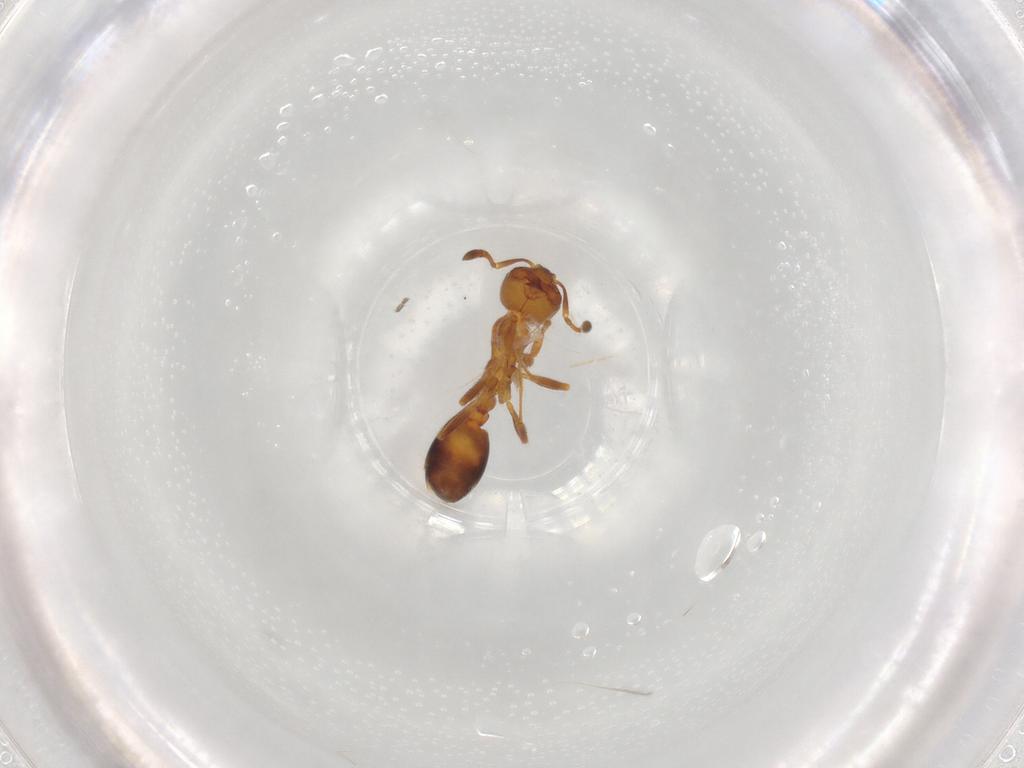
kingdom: Animalia
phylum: Arthropoda
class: Insecta
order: Hymenoptera
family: Formicidae
